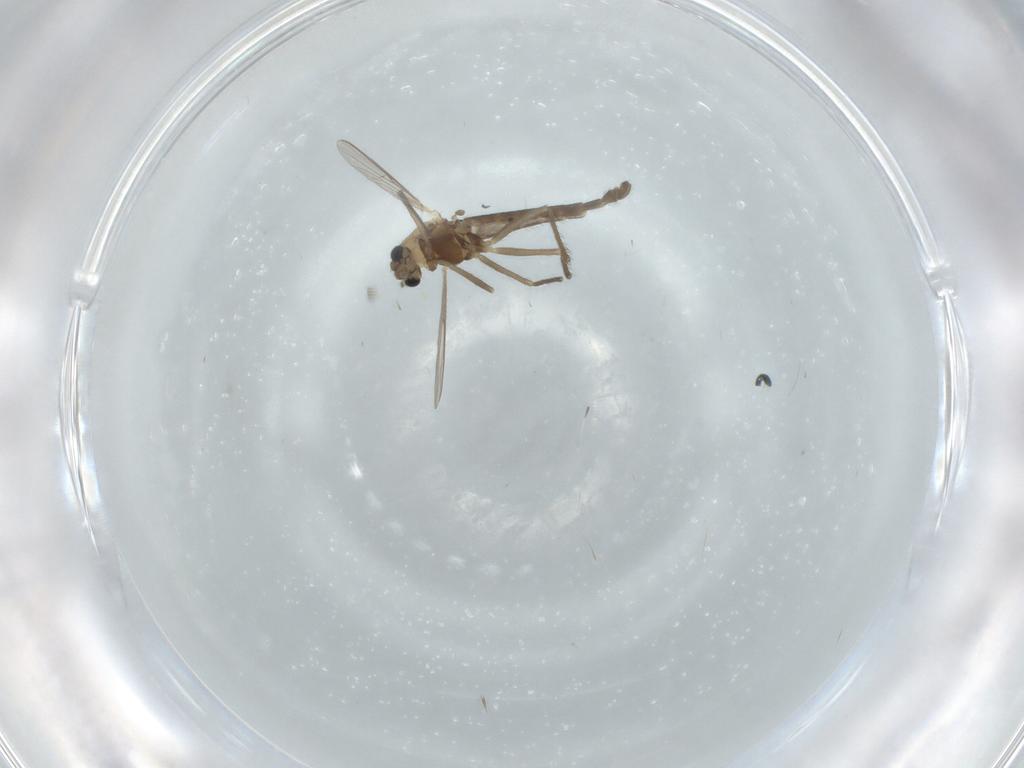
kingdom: Animalia
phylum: Arthropoda
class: Insecta
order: Diptera
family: Chironomidae
